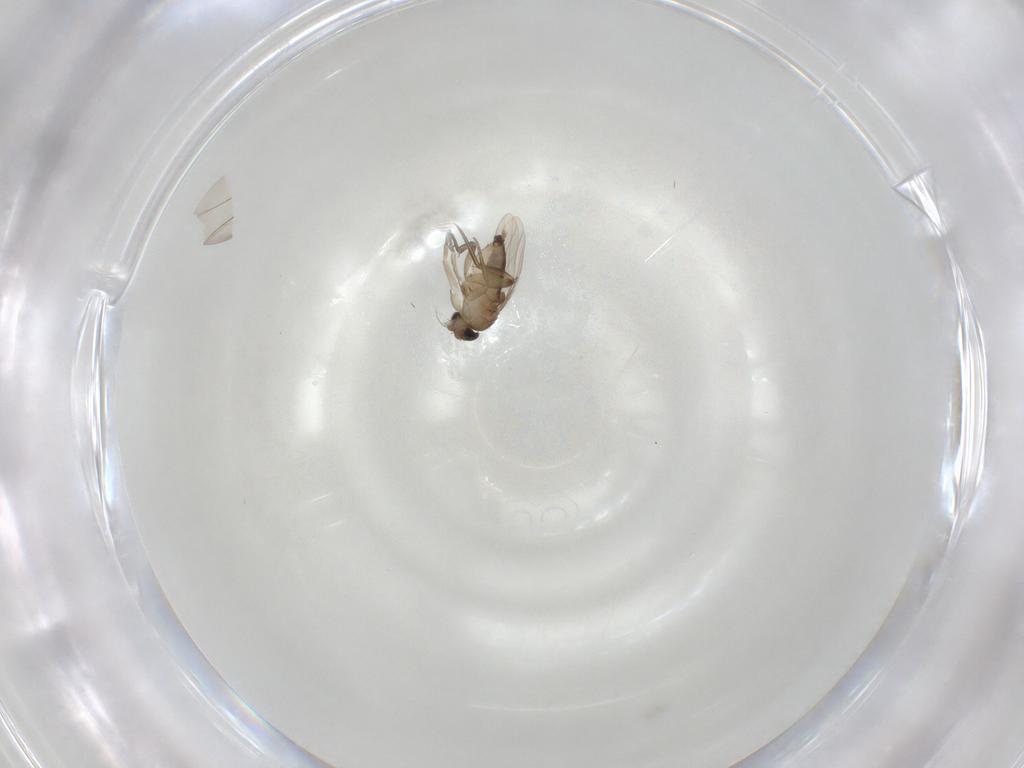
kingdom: Animalia
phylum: Arthropoda
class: Insecta
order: Diptera
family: Phoridae
